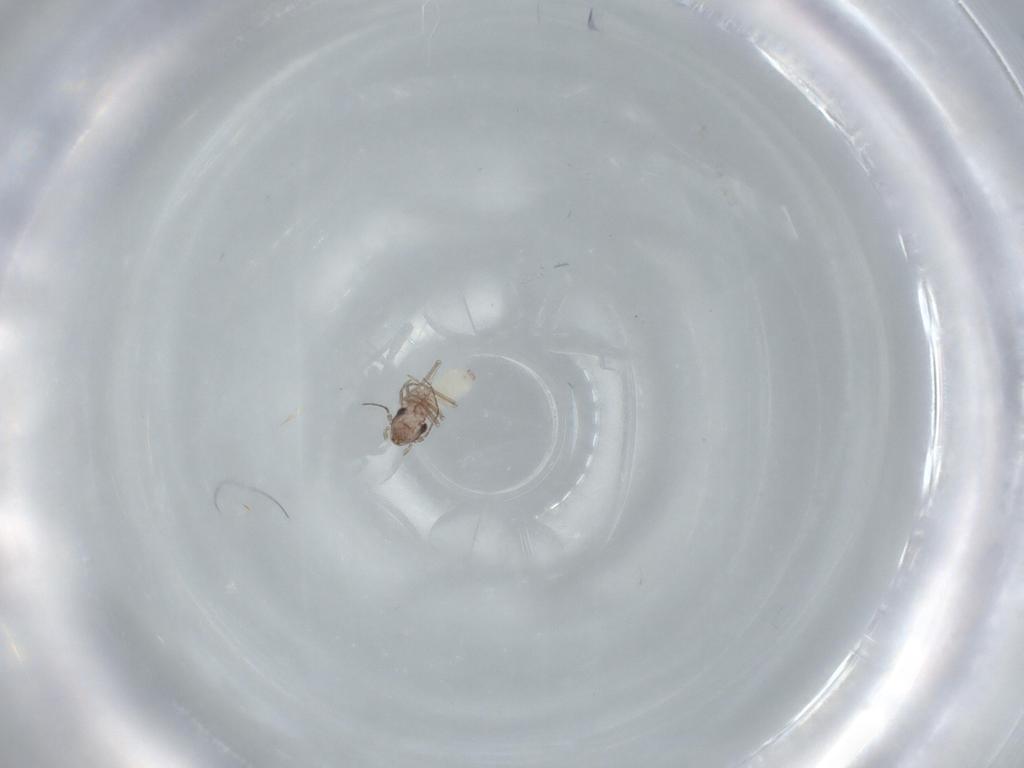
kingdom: Animalia
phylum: Arthropoda
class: Insecta
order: Psocodea
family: Lepidopsocidae
